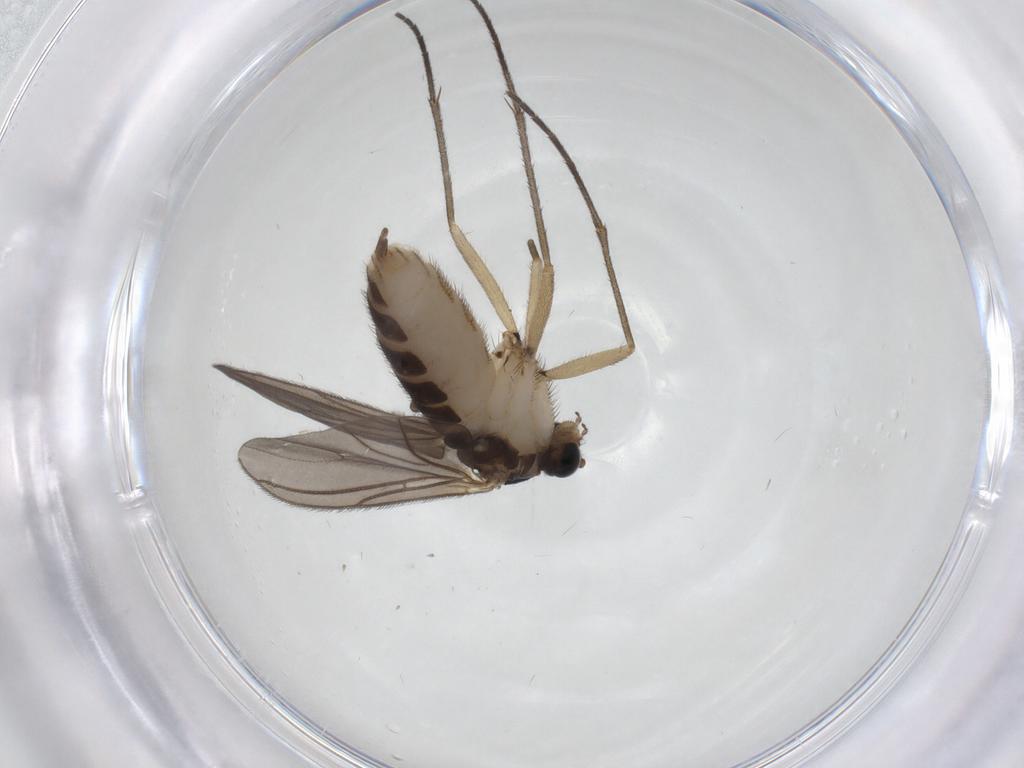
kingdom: Animalia
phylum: Arthropoda
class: Insecta
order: Diptera
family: Sciaridae
